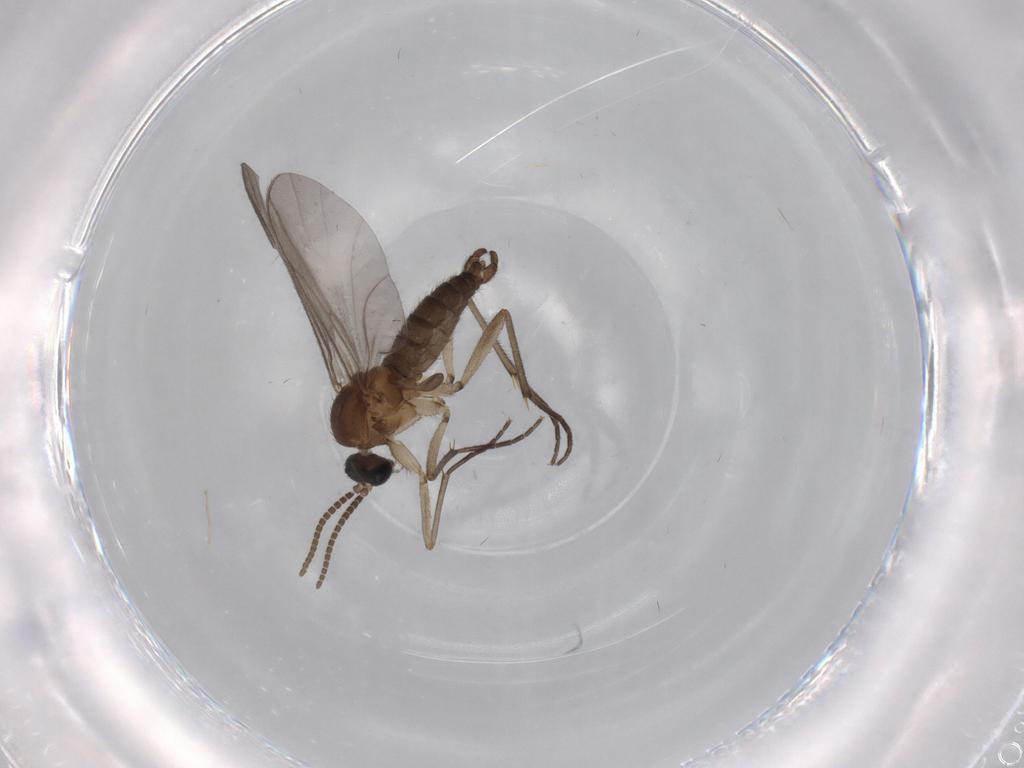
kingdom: Animalia
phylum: Arthropoda
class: Insecta
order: Diptera
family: Sciaridae
